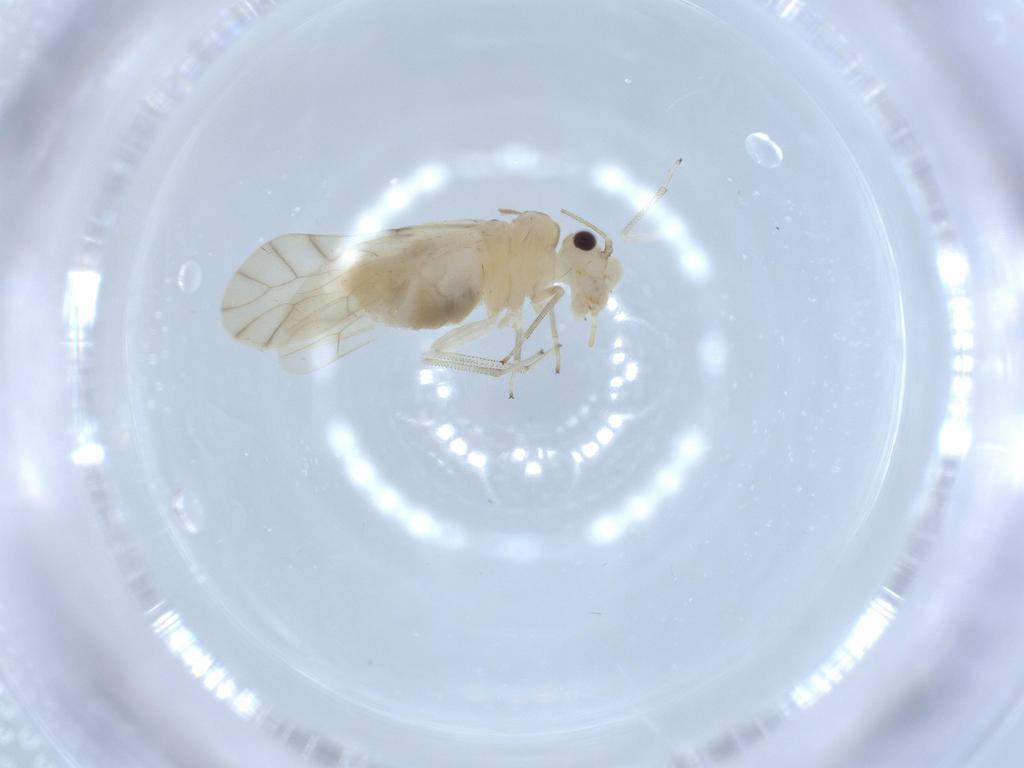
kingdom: Animalia
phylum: Arthropoda
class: Insecta
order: Thysanoptera
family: Phlaeothripidae
